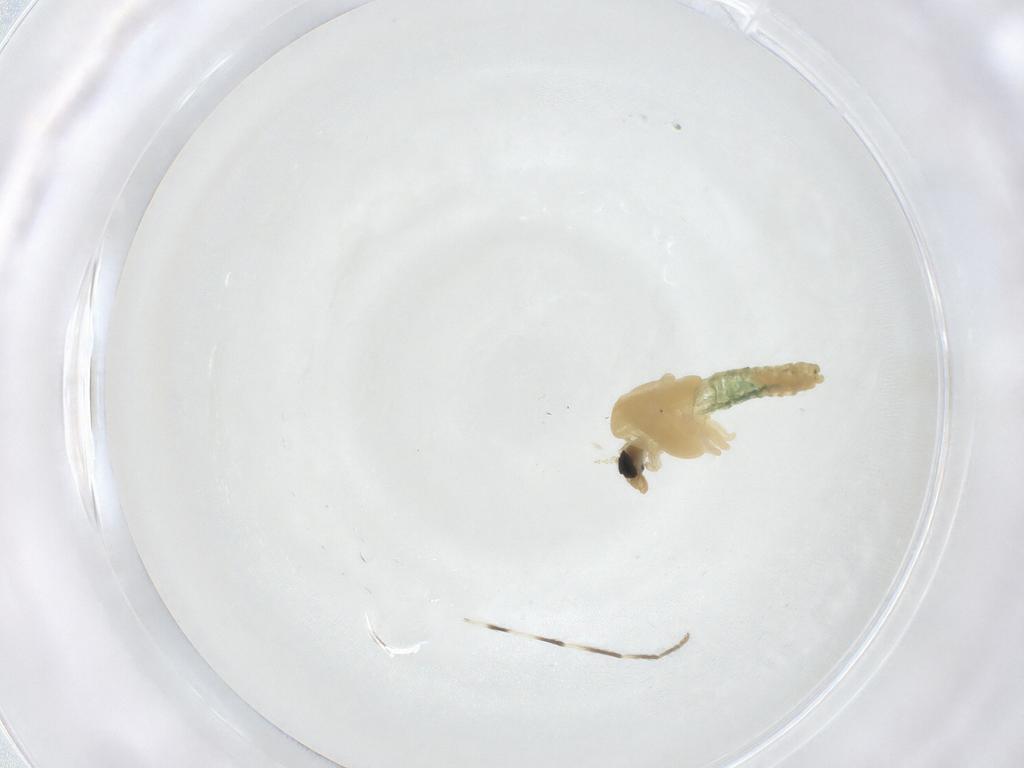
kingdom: Animalia
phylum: Arthropoda
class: Insecta
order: Diptera
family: Chironomidae
